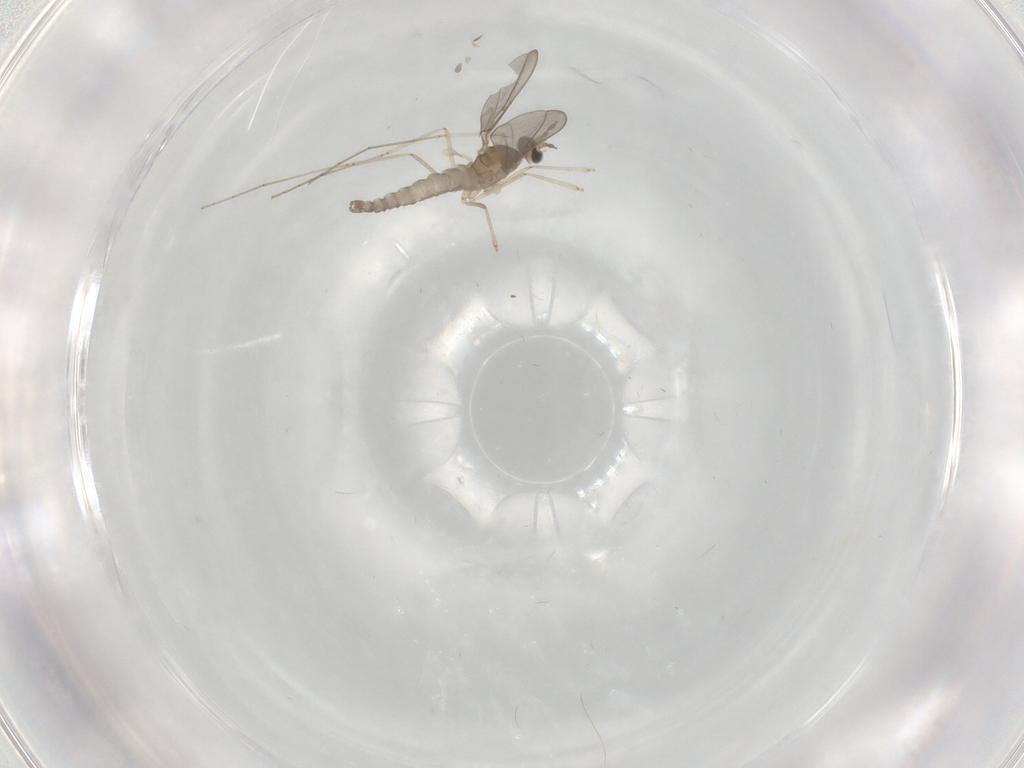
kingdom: Animalia
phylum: Arthropoda
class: Insecta
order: Diptera
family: Cecidomyiidae
